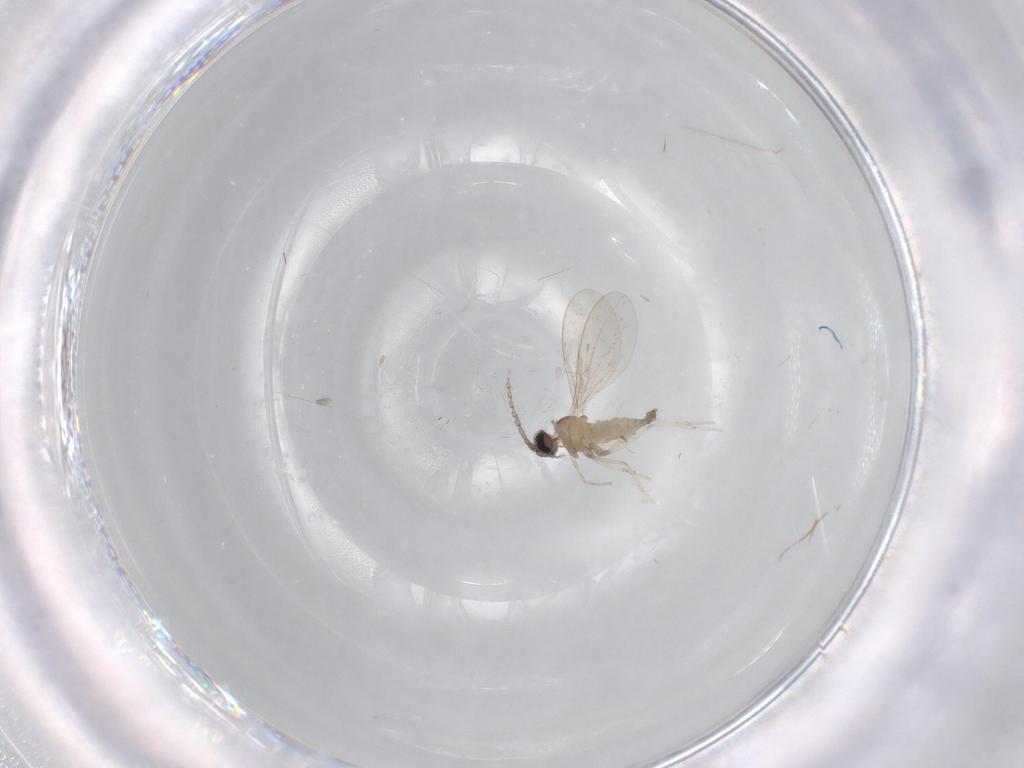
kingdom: Animalia
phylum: Arthropoda
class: Insecta
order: Diptera
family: Cecidomyiidae
